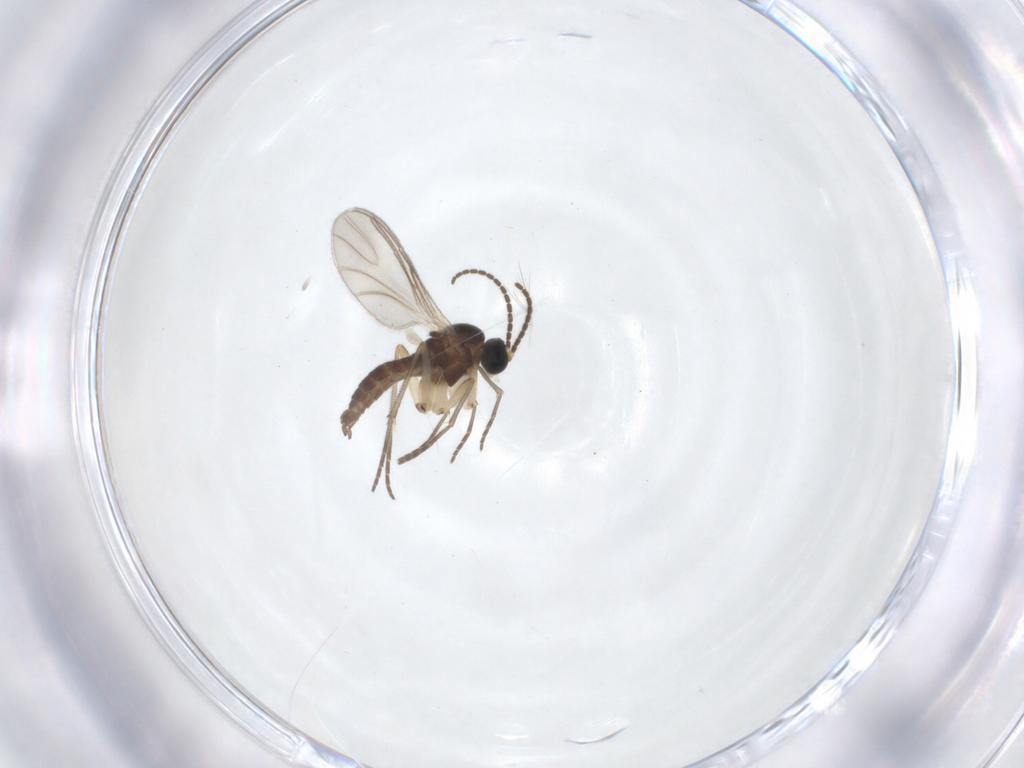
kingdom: Animalia
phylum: Arthropoda
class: Insecta
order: Diptera
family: Sciaridae
